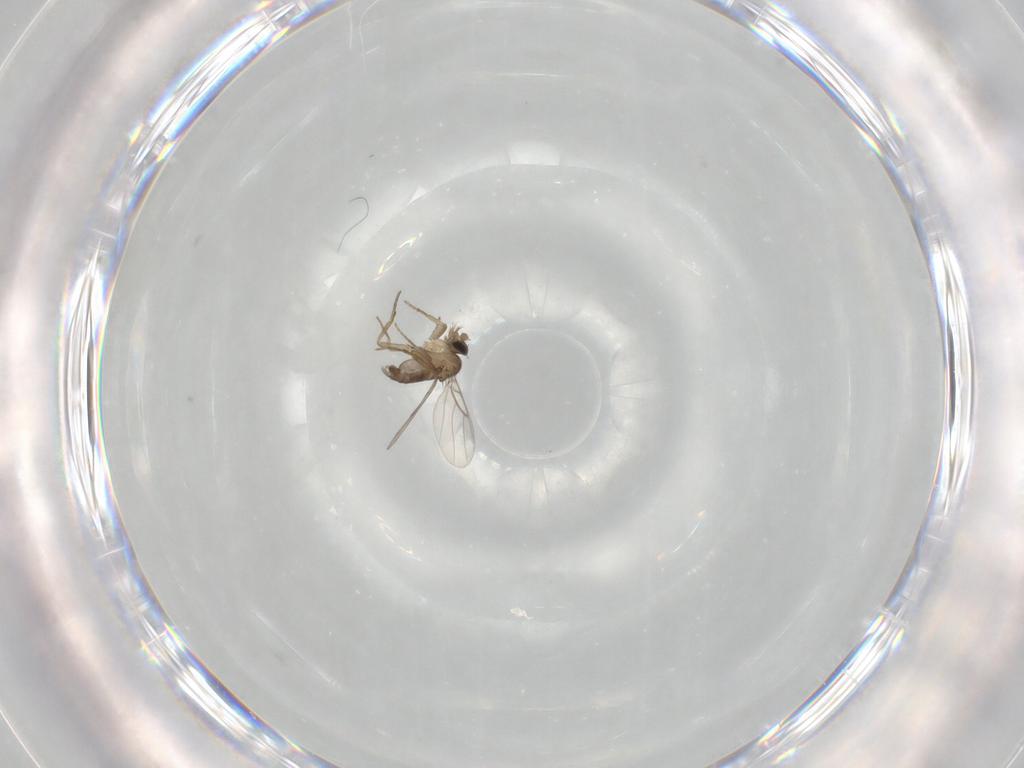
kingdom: Animalia
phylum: Arthropoda
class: Insecta
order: Diptera
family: Phoridae
